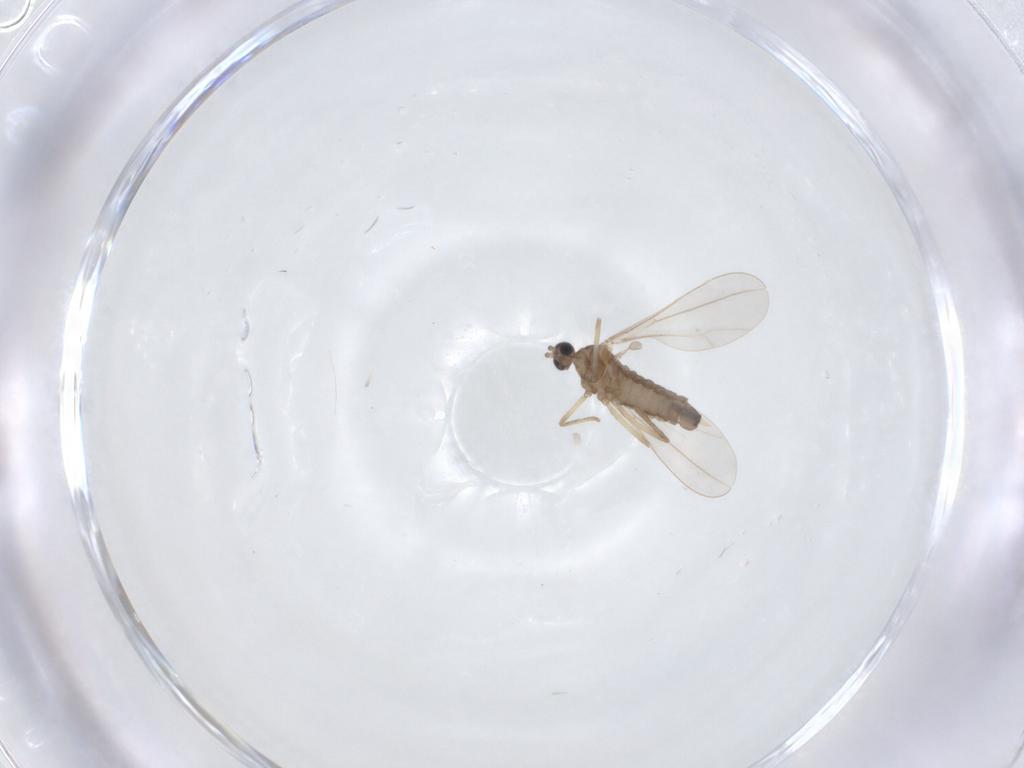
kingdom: Animalia
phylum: Arthropoda
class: Insecta
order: Diptera
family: Cecidomyiidae
